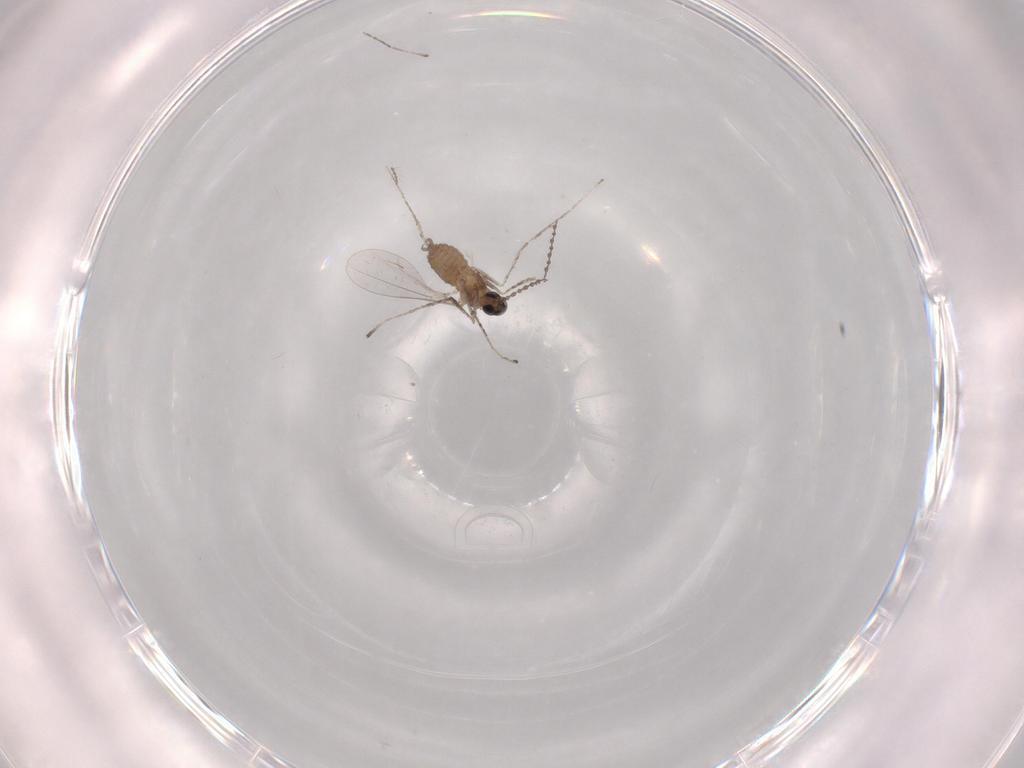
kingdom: Animalia
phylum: Arthropoda
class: Insecta
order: Diptera
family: Cecidomyiidae
